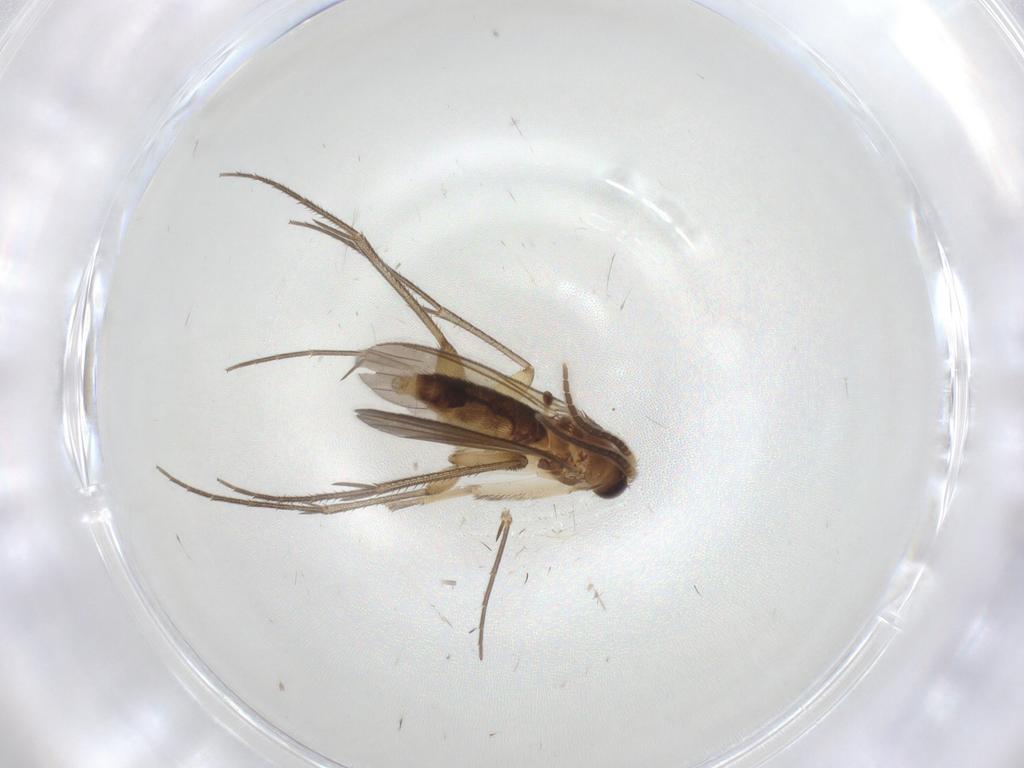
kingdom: Animalia
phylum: Arthropoda
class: Insecta
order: Diptera
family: Mycetophilidae
